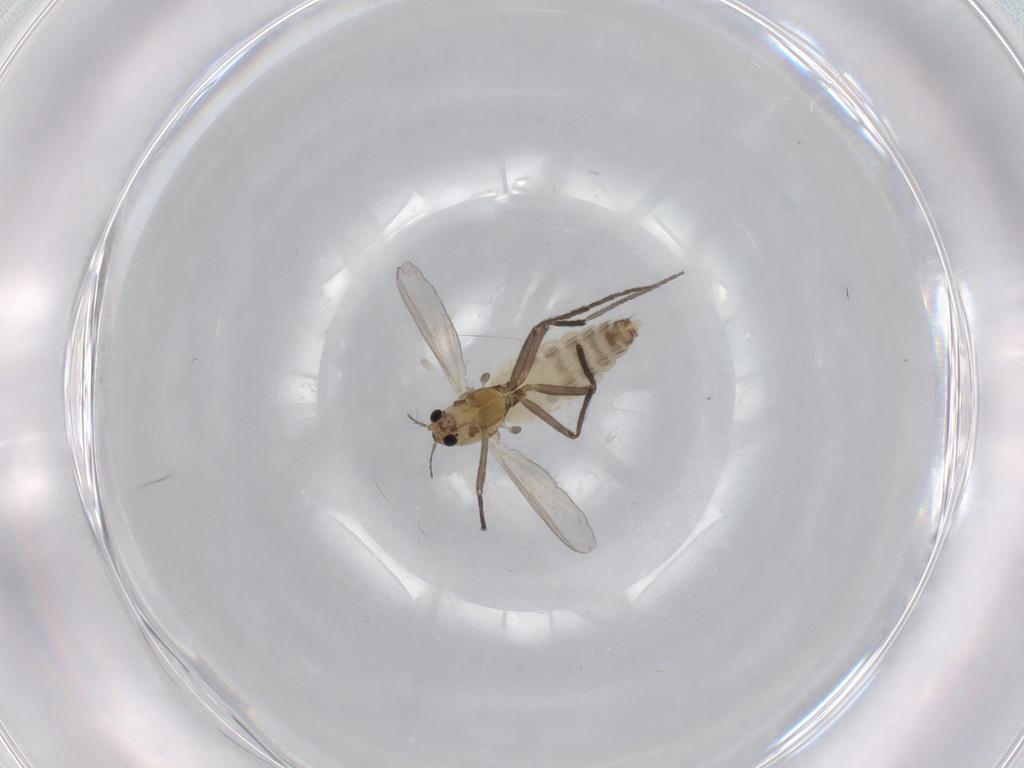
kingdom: Animalia
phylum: Arthropoda
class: Insecta
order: Diptera
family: Chironomidae
